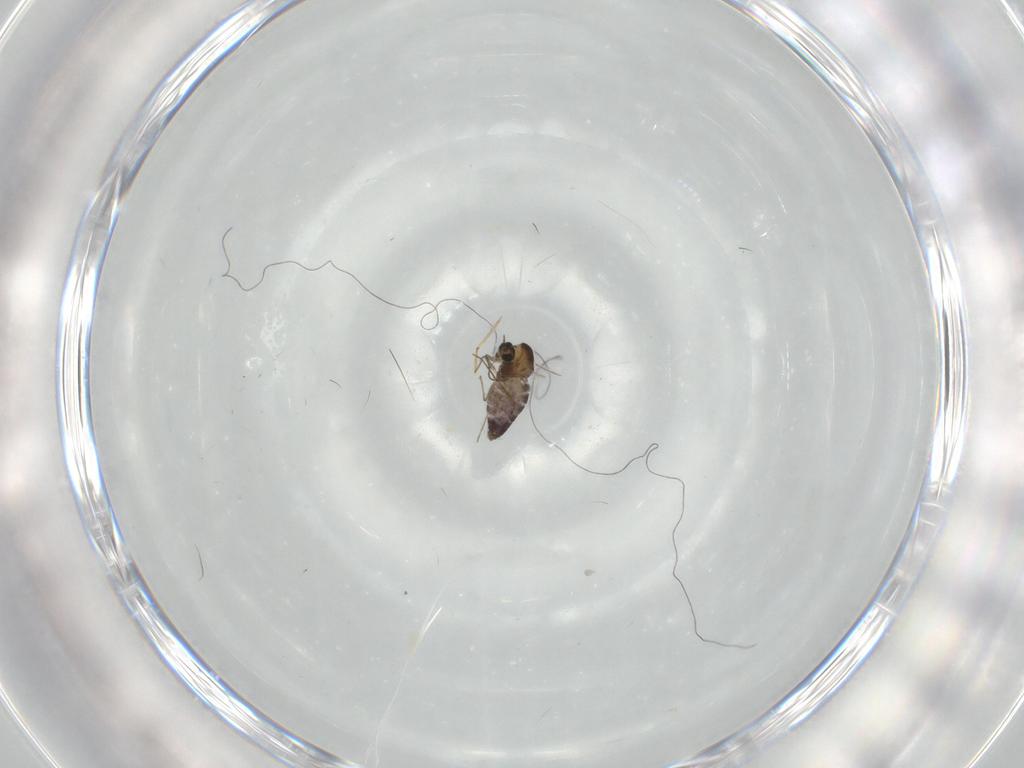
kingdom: Animalia
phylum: Arthropoda
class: Insecta
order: Diptera
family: Chironomidae
